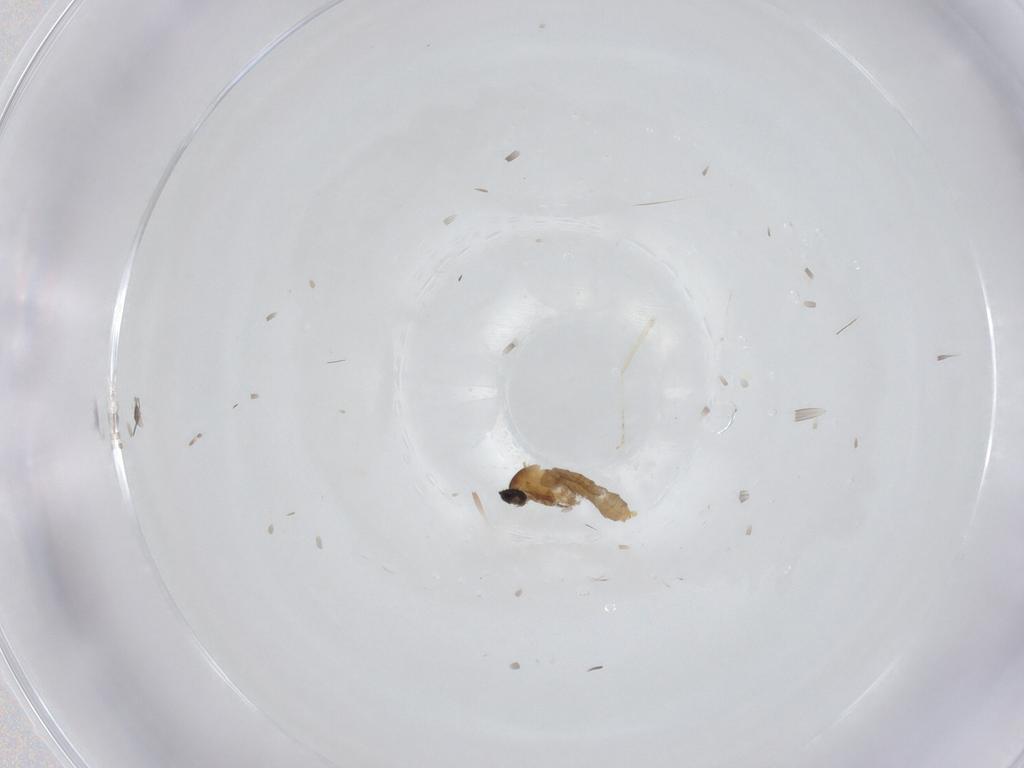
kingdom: Animalia
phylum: Arthropoda
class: Insecta
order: Diptera
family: Cecidomyiidae
